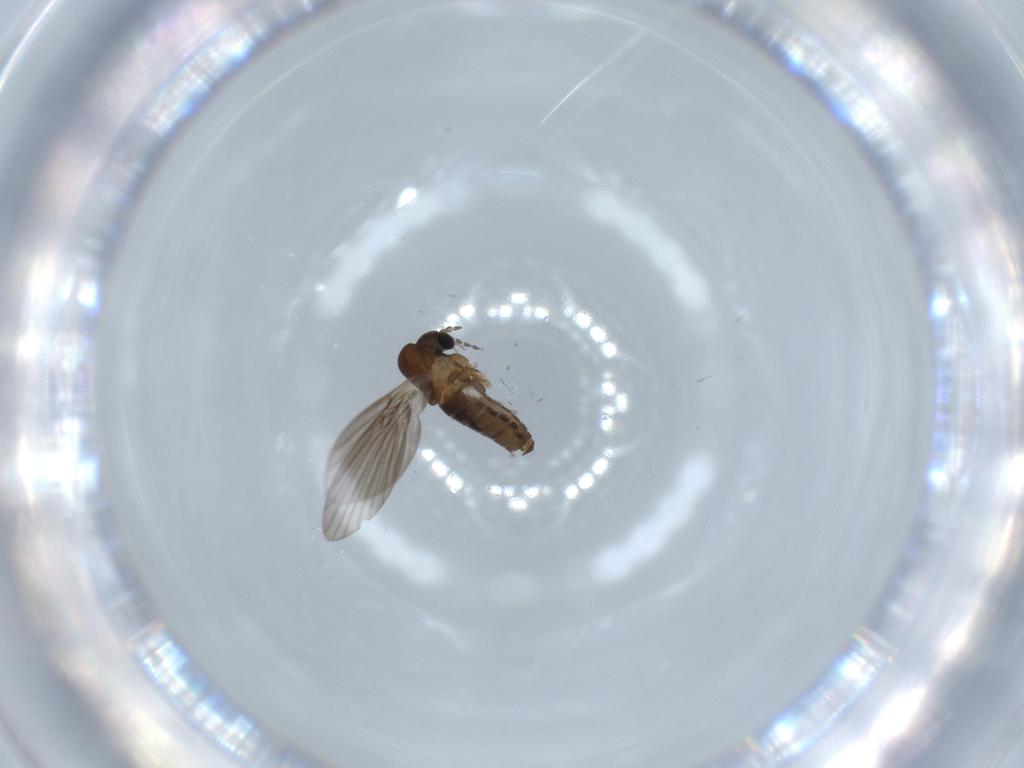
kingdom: Animalia
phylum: Arthropoda
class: Insecta
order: Diptera
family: Psychodidae
